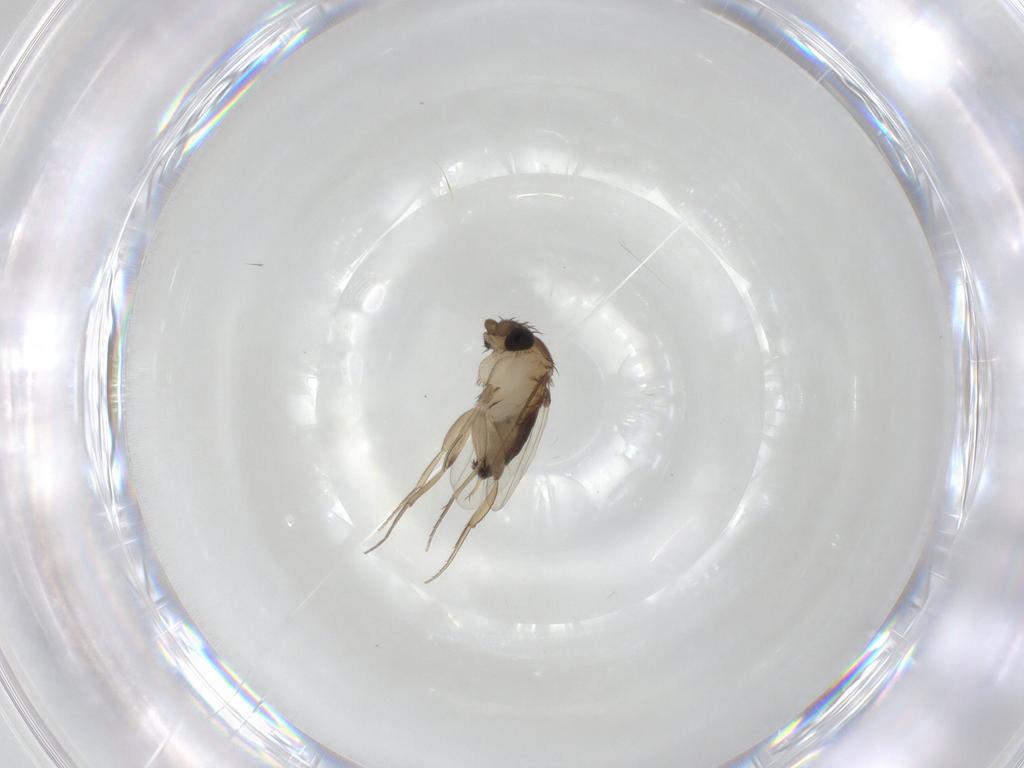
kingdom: Animalia
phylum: Arthropoda
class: Insecta
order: Diptera
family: Phoridae
